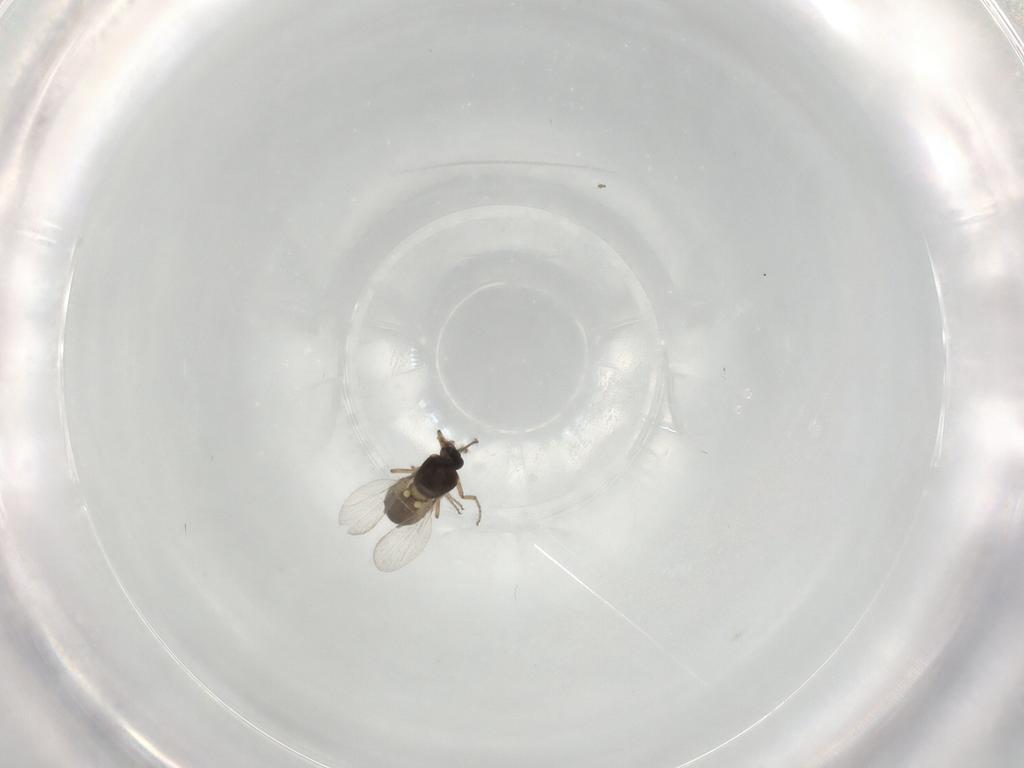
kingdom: Animalia
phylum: Arthropoda
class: Insecta
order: Diptera
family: Ceratopogonidae
